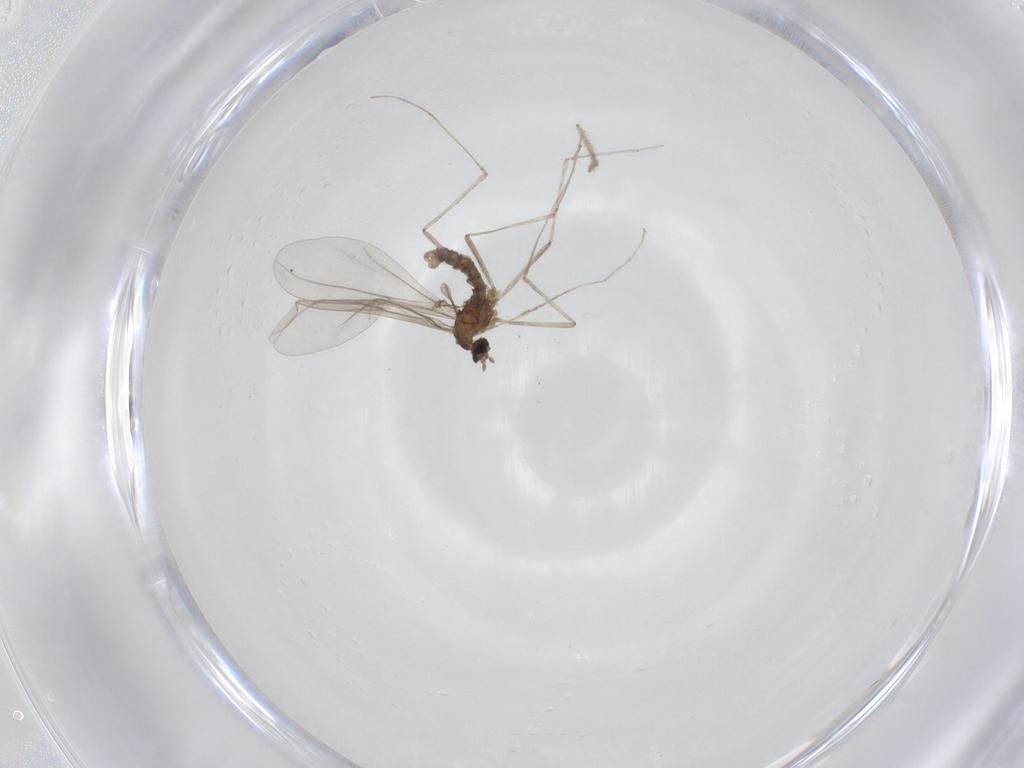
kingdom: Animalia
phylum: Arthropoda
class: Insecta
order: Diptera
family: Cecidomyiidae
